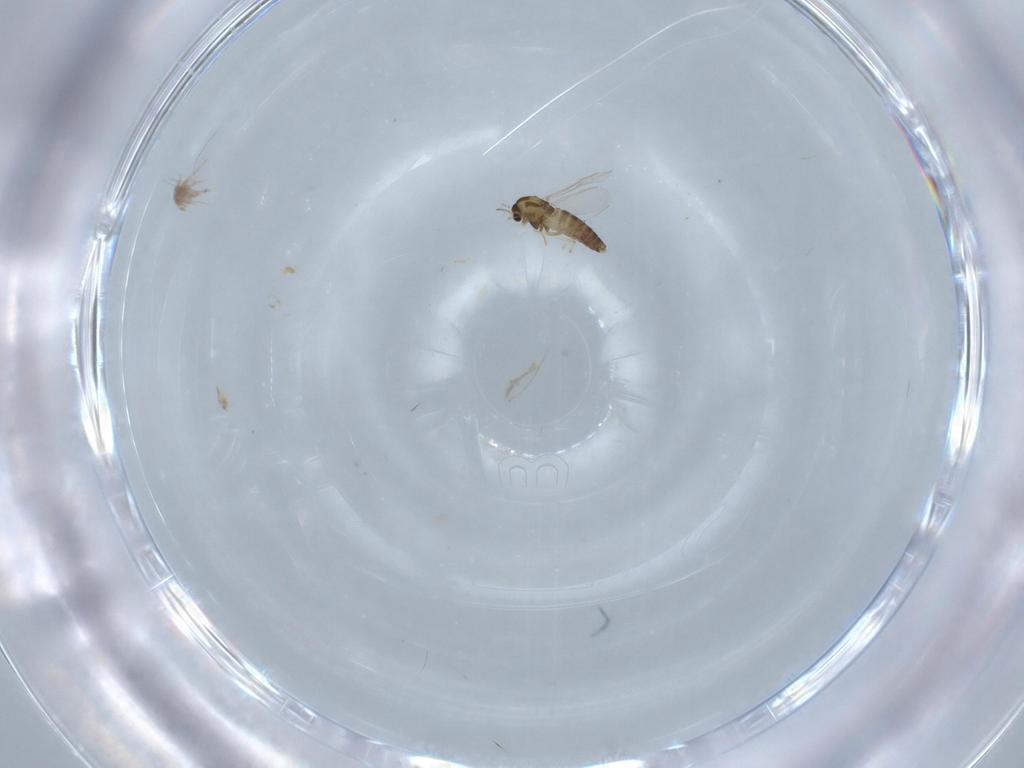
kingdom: Animalia
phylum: Arthropoda
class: Insecta
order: Diptera
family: Chironomidae
